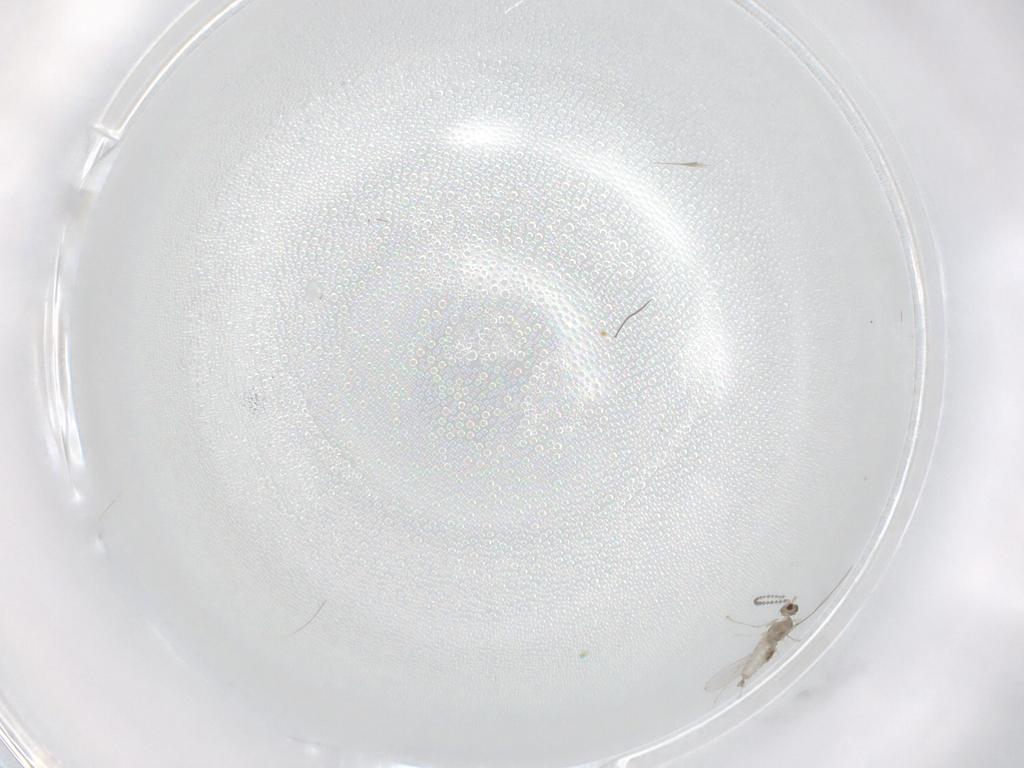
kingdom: Animalia
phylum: Arthropoda
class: Insecta
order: Diptera
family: Cecidomyiidae
